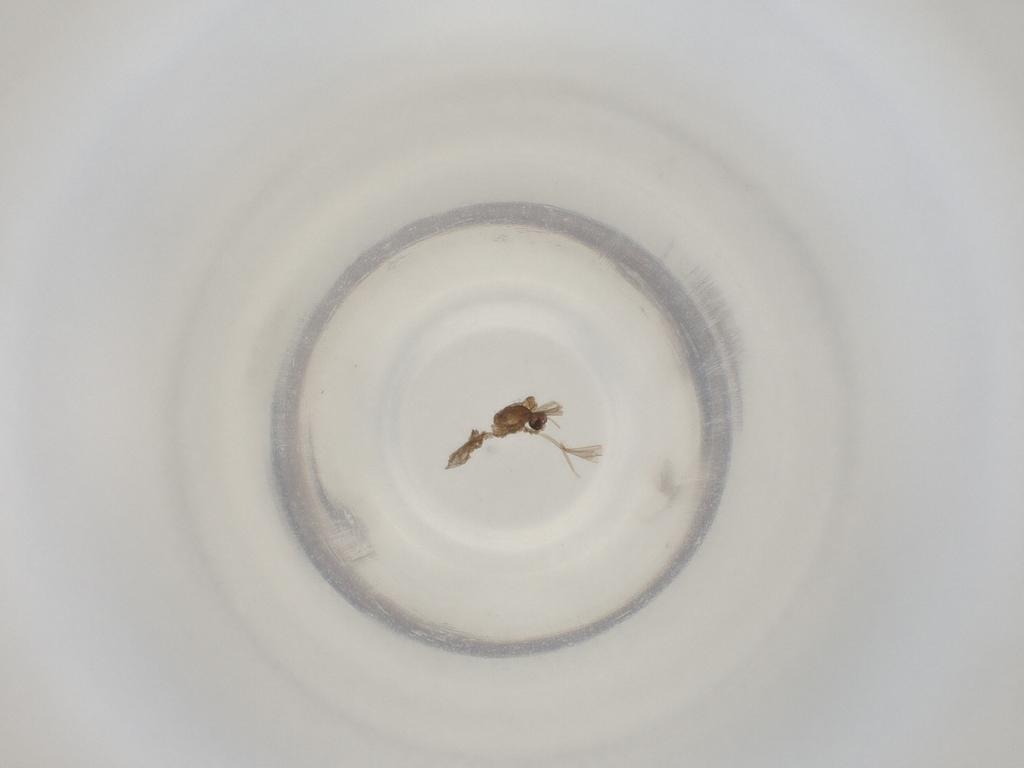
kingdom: Animalia
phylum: Arthropoda
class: Insecta
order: Diptera
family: Cecidomyiidae
